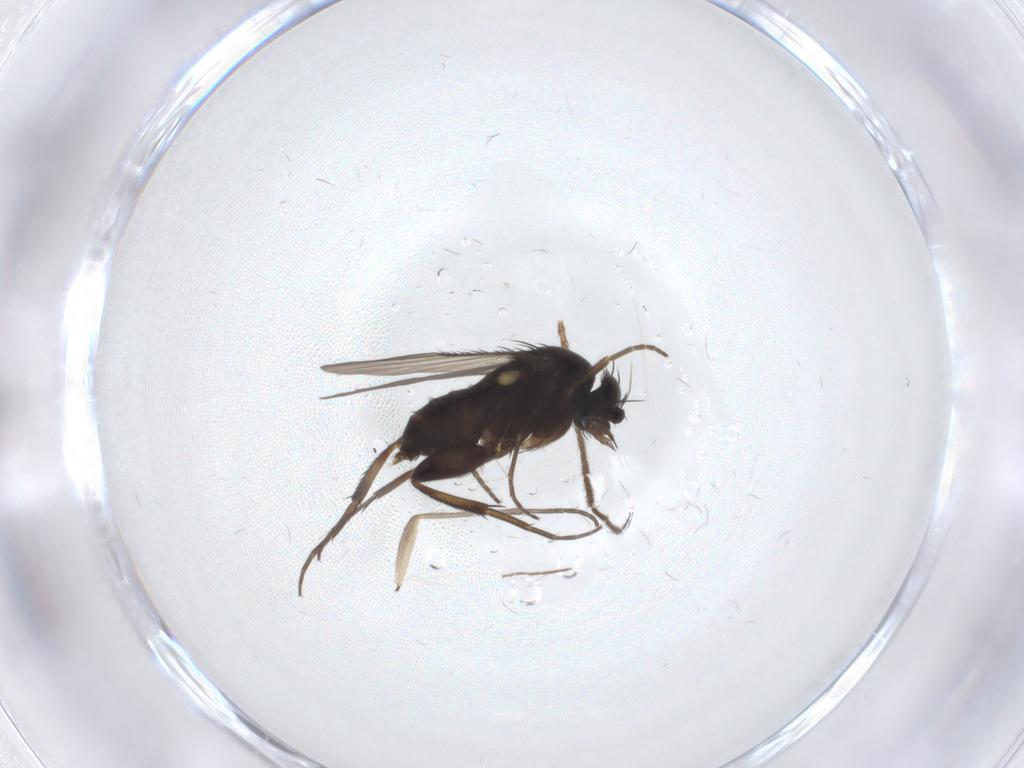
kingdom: Animalia
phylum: Arthropoda
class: Insecta
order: Diptera
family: Phoridae
